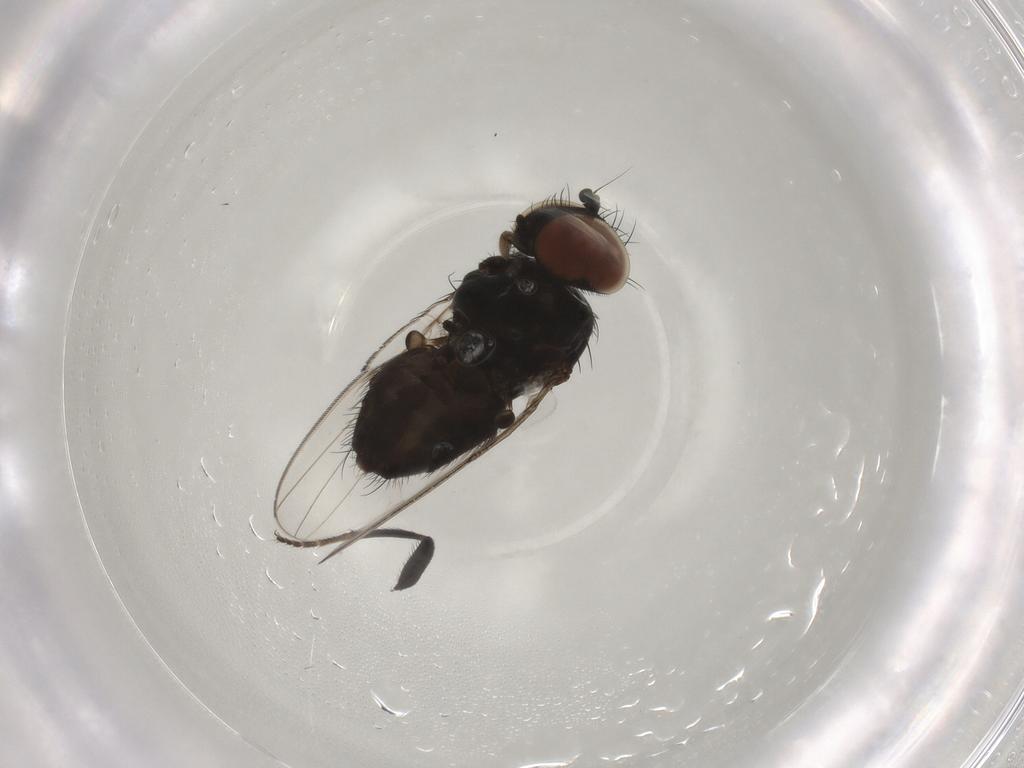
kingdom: Animalia
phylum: Arthropoda
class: Insecta
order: Diptera
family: Milichiidae
